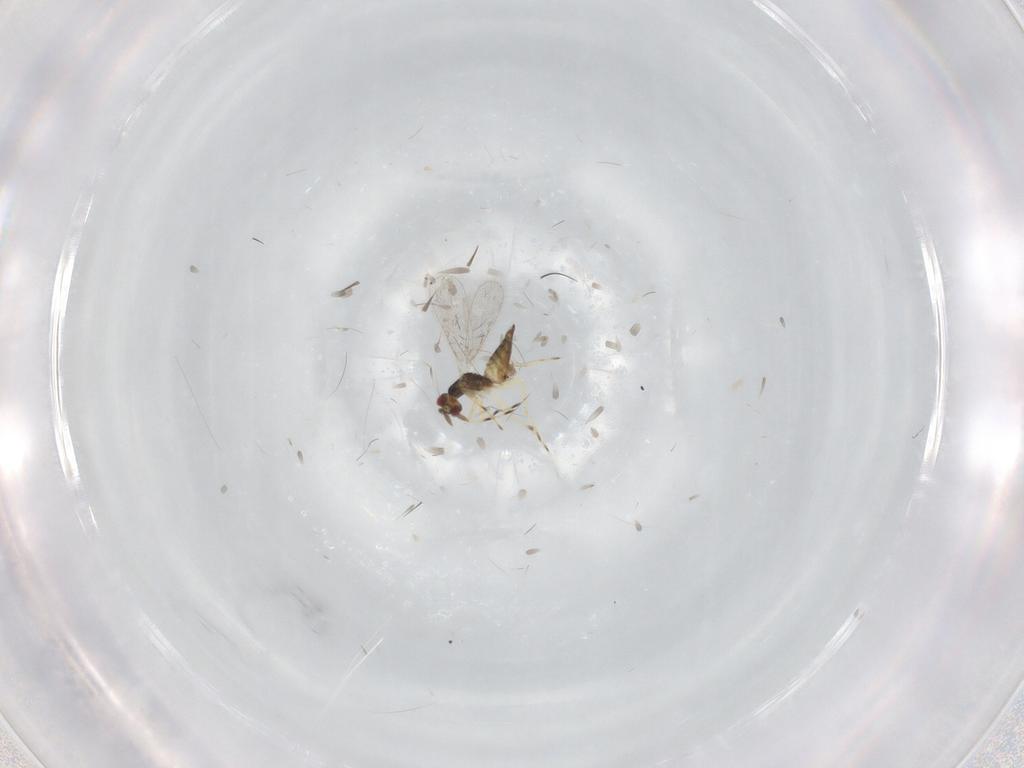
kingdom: Animalia
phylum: Arthropoda
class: Insecta
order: Hymenoptera
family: Eulophidae
